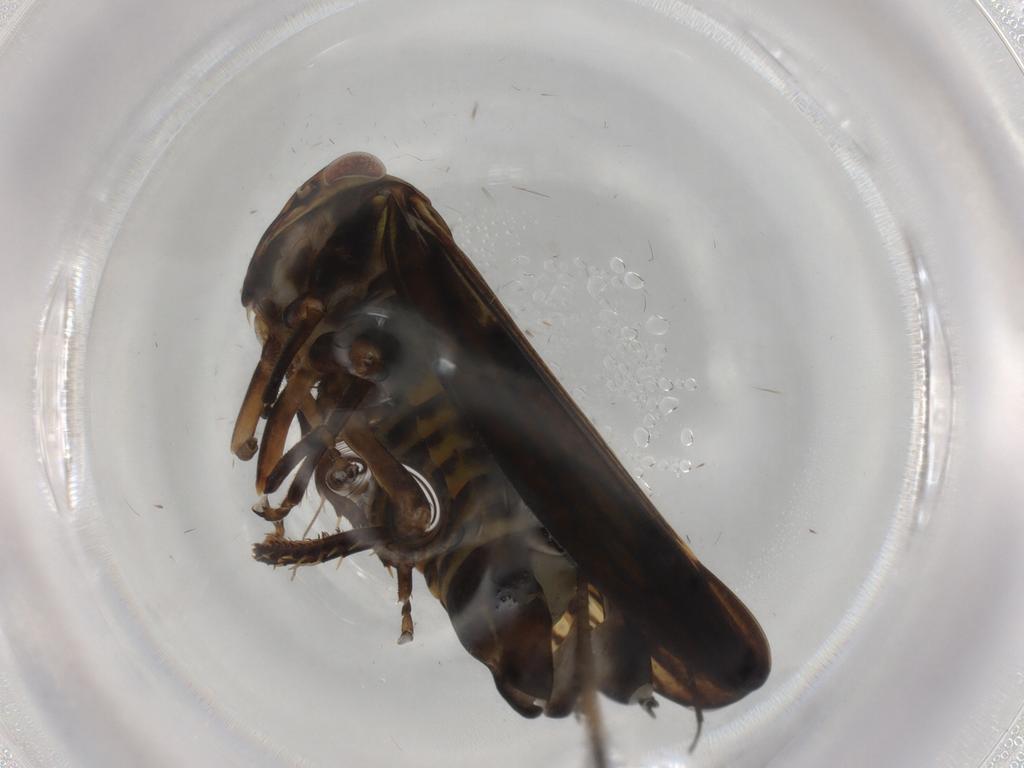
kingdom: Animalia
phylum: Arthropoda
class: Insecta
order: Hemiptera
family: Cicadellidae
